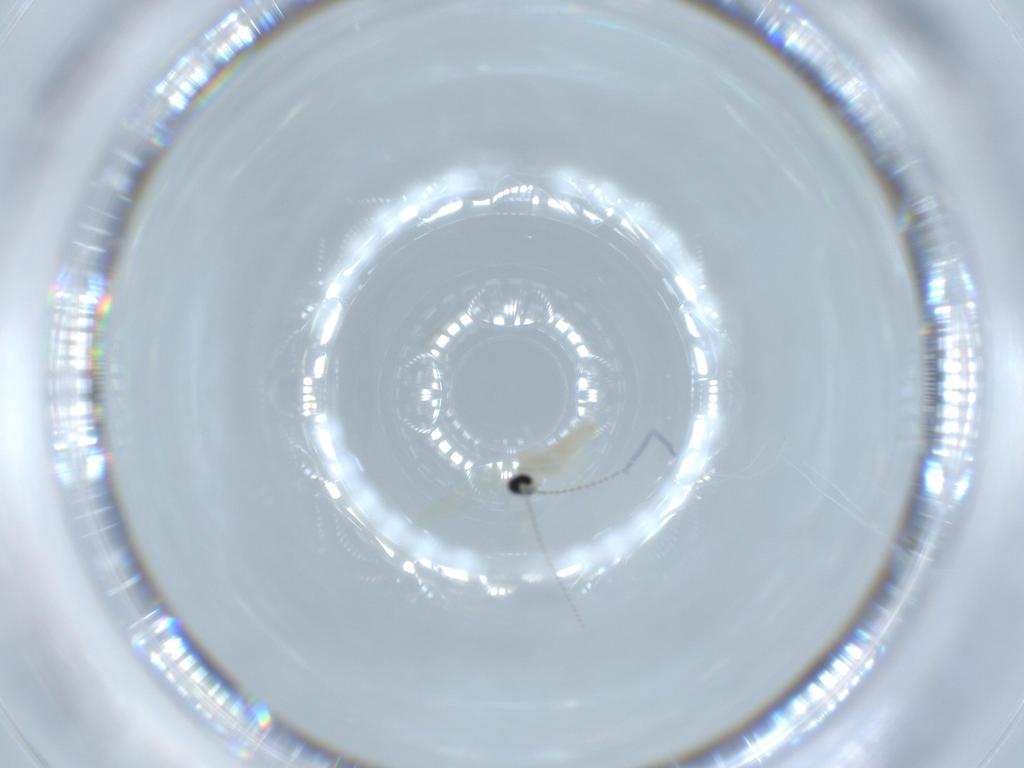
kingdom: Animalia
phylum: Arthropoda
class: Insecta
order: Diptera
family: Cecidomyiidae
